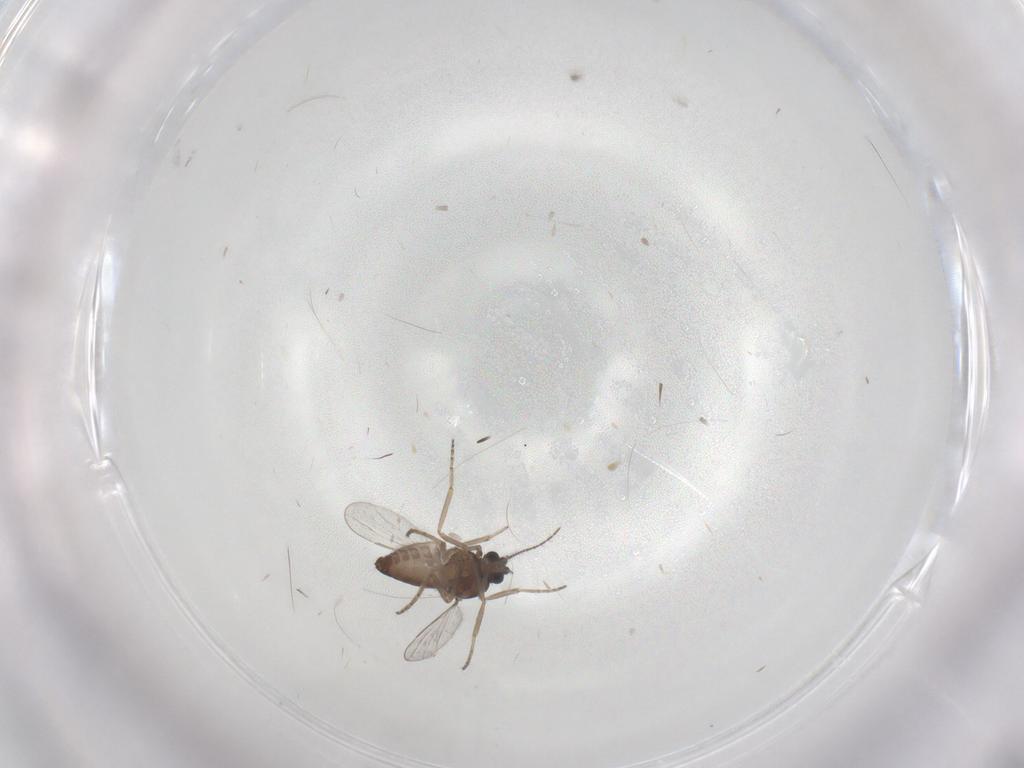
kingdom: Animalia
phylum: Arthropoda
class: Insecta
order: Diptera
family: Ceratopogonidae
